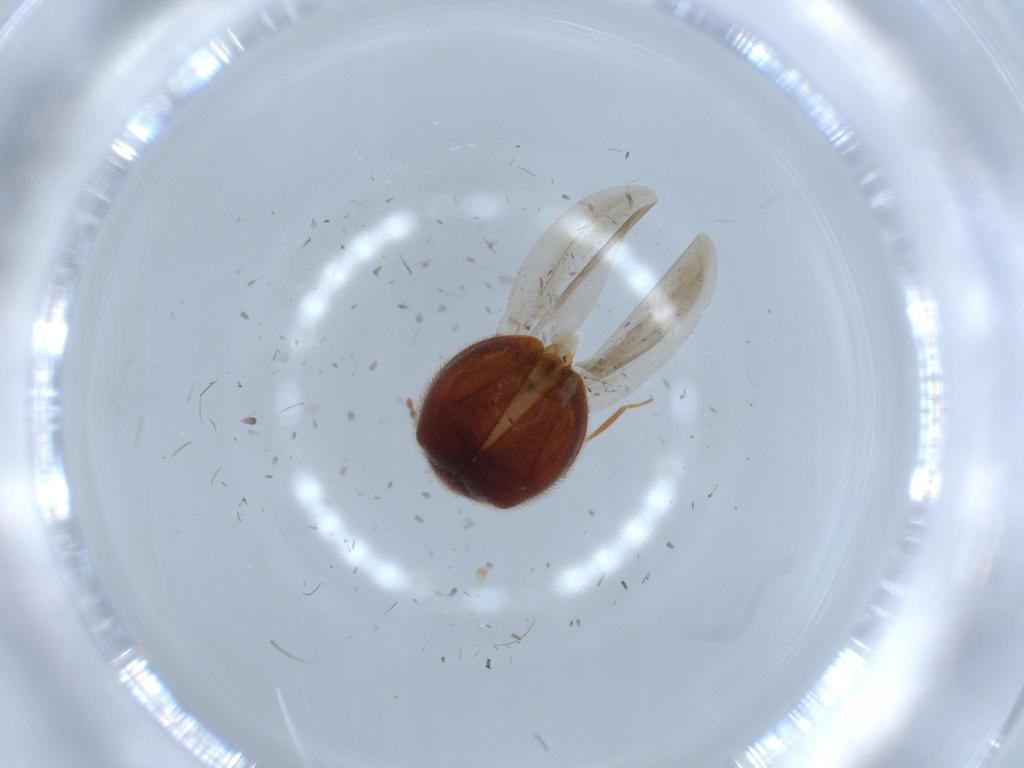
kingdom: Animalia
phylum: Arthropoda
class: Insecta
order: Coleoptera
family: Anamorphidae
